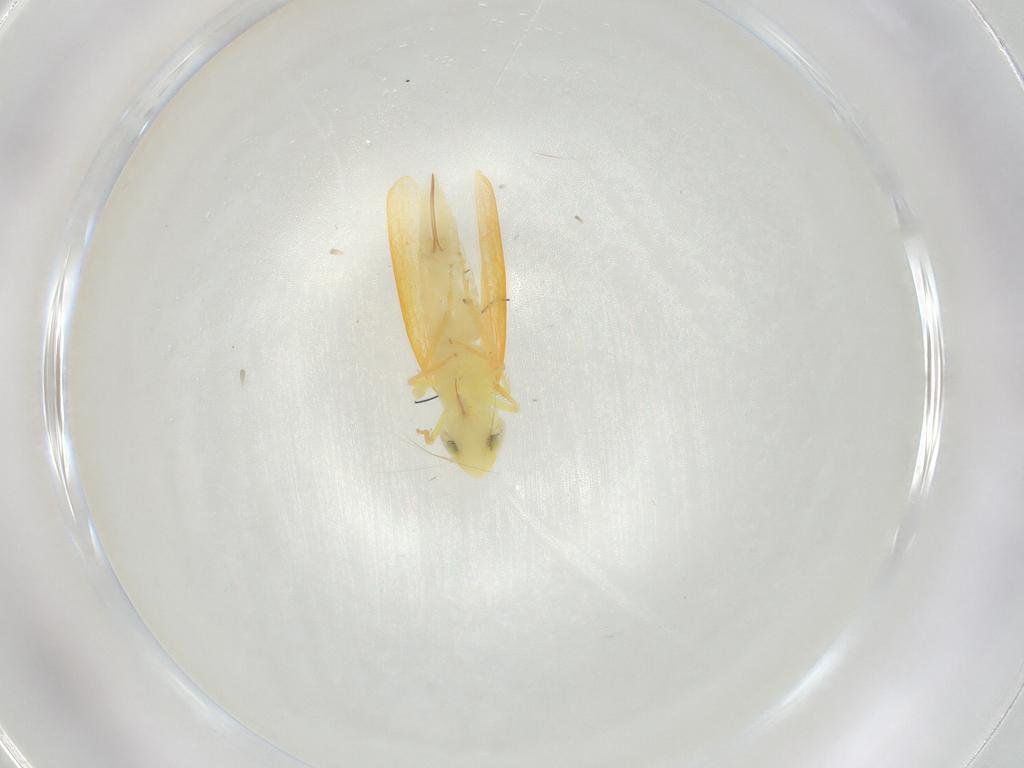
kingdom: Animalia
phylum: Arthropoda
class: Insecta
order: Hemiptera
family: Cicadellidae
